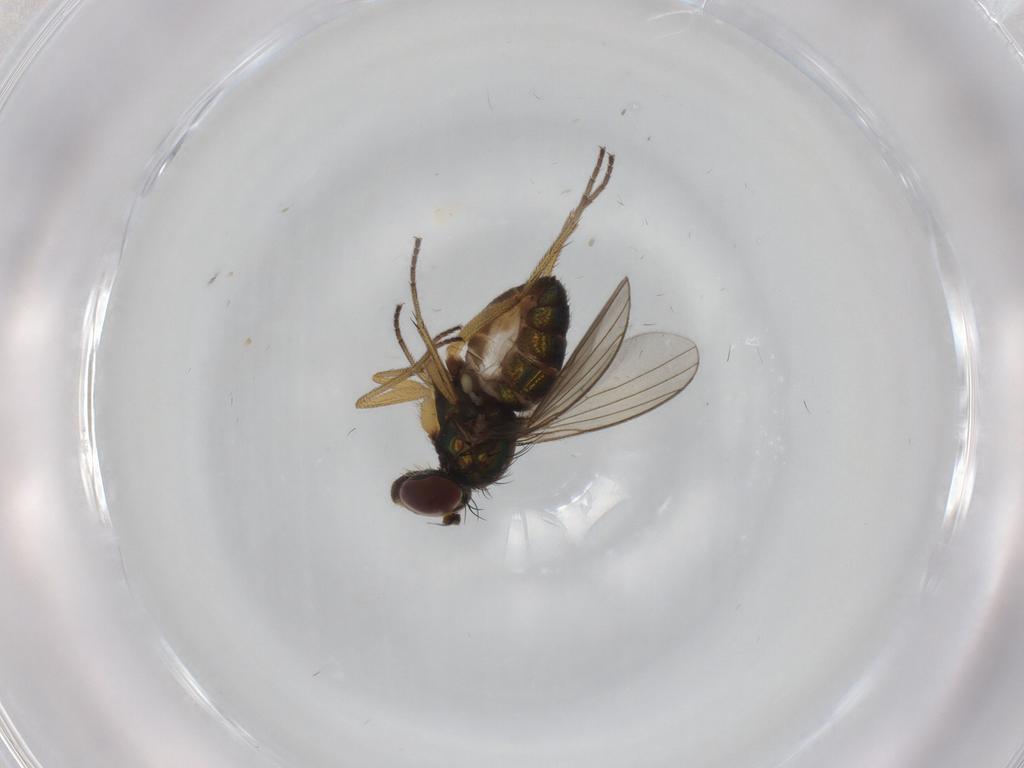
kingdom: Animalia
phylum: Arthropoda
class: Insecta
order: Diptera
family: Dolichopodidae
